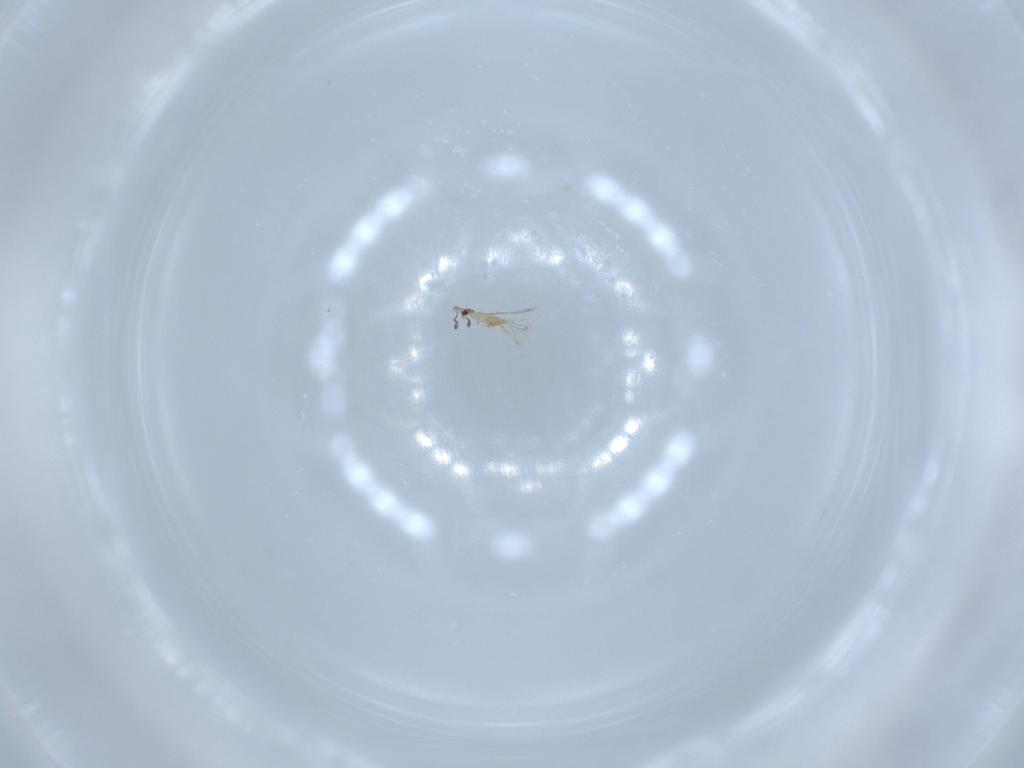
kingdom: Animalia
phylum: Arthropoda
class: Insecta
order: Hymenoptera
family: Mymaridae
